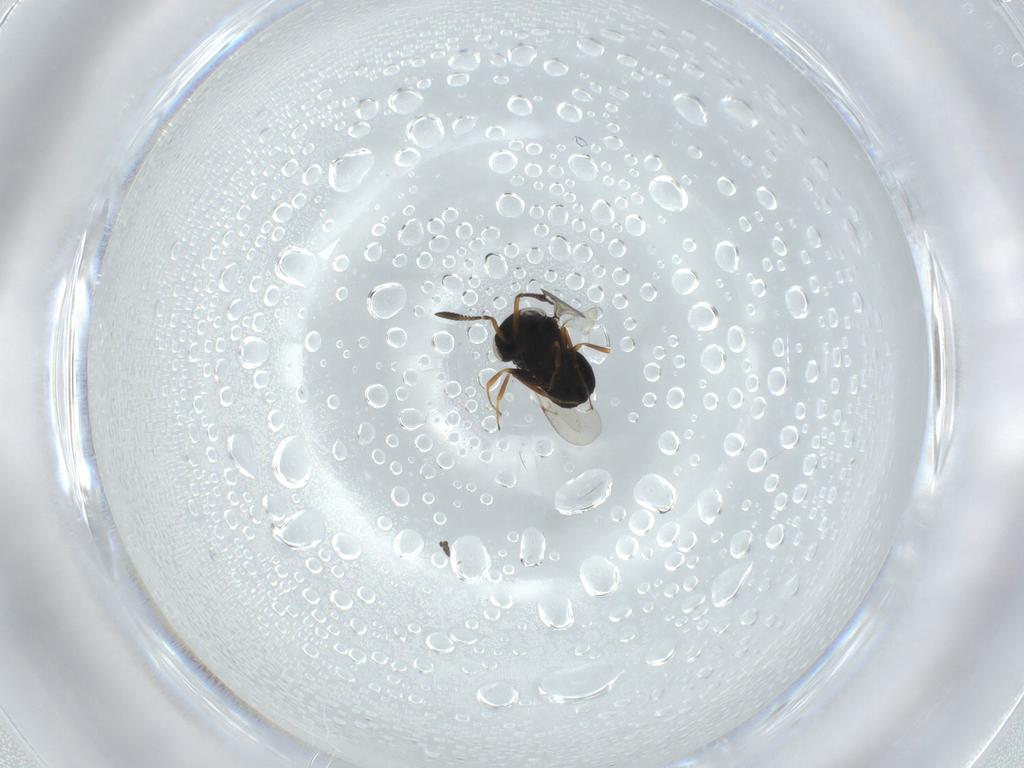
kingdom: Animalia
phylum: Arthropoda
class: Insecta
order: Hymenoptera
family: Scelionidae
